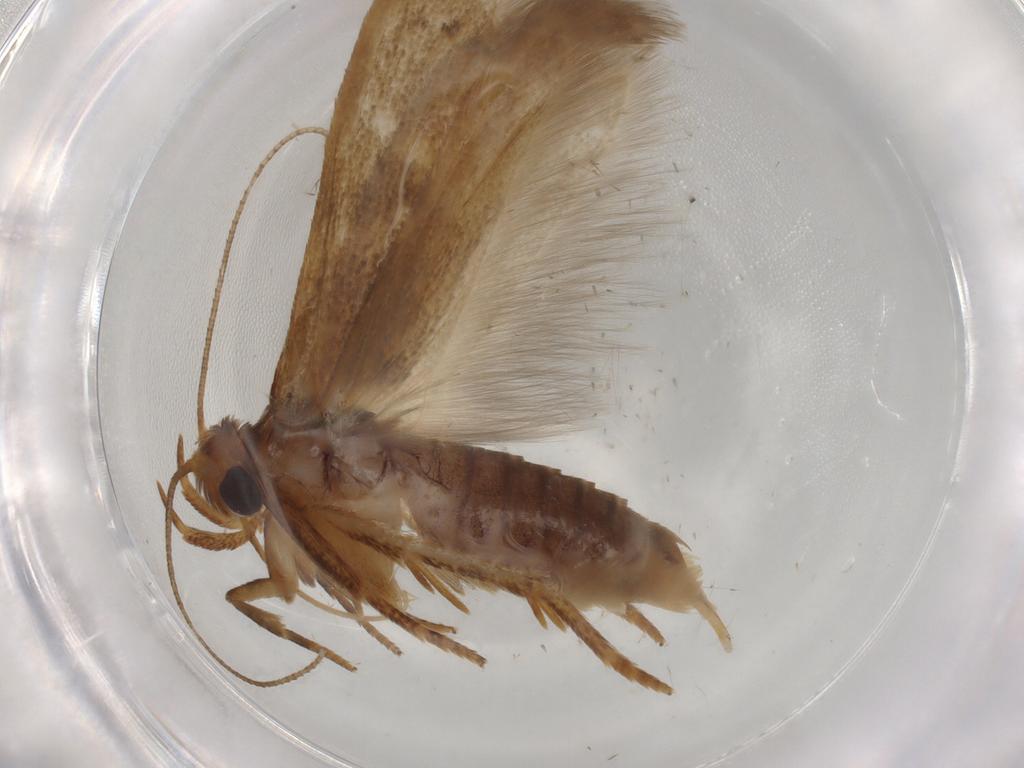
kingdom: Animalia
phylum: Arthropoda
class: Insecta
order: Lepidoptera
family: Blastobasidae
